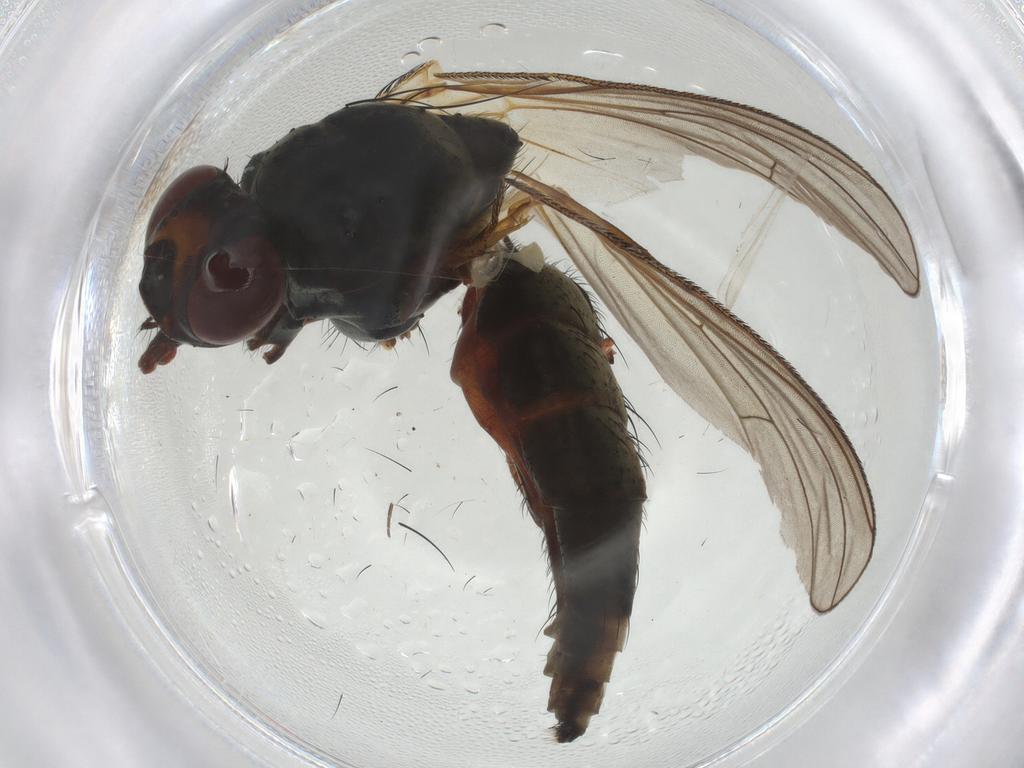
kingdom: Animalia
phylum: Arthropoda
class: Insecta
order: Diptera
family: Anthomyiidae
